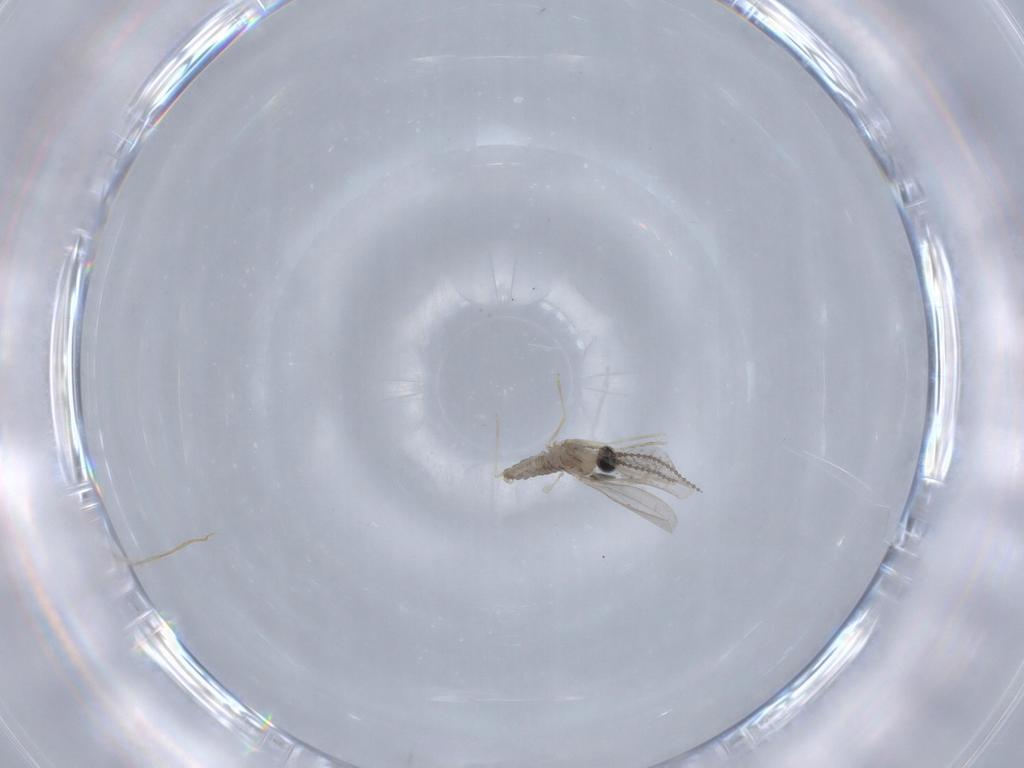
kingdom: Animalia
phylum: Arthropoda
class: Insecta
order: Diptera
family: Cecidomyiidae
